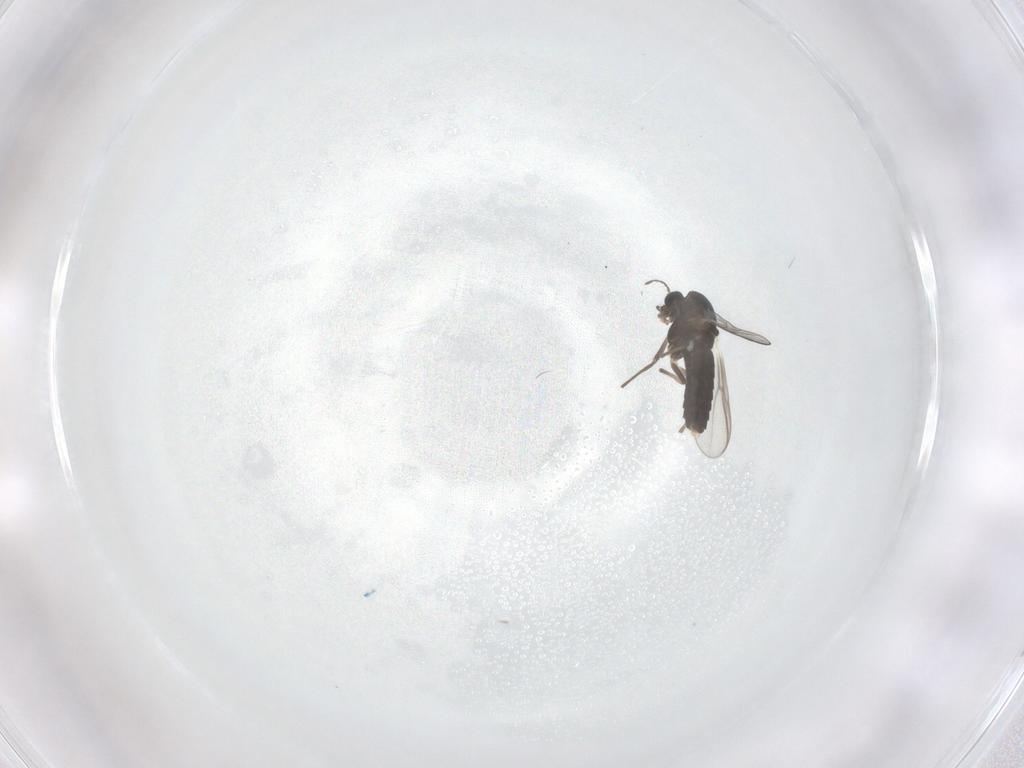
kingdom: Animalia
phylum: Arthropoda
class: Insecta
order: Diptera
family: Chironomidae
